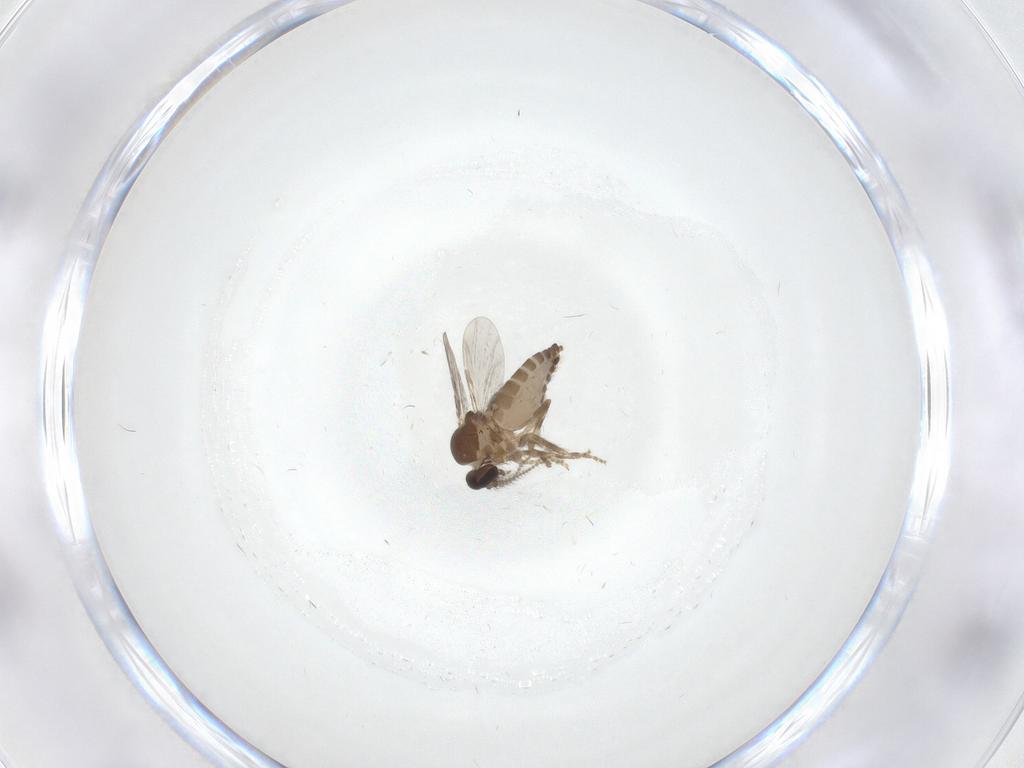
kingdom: Animalia
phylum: Arthropoda
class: Insecta
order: Diptera
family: Ceratopogonidae
